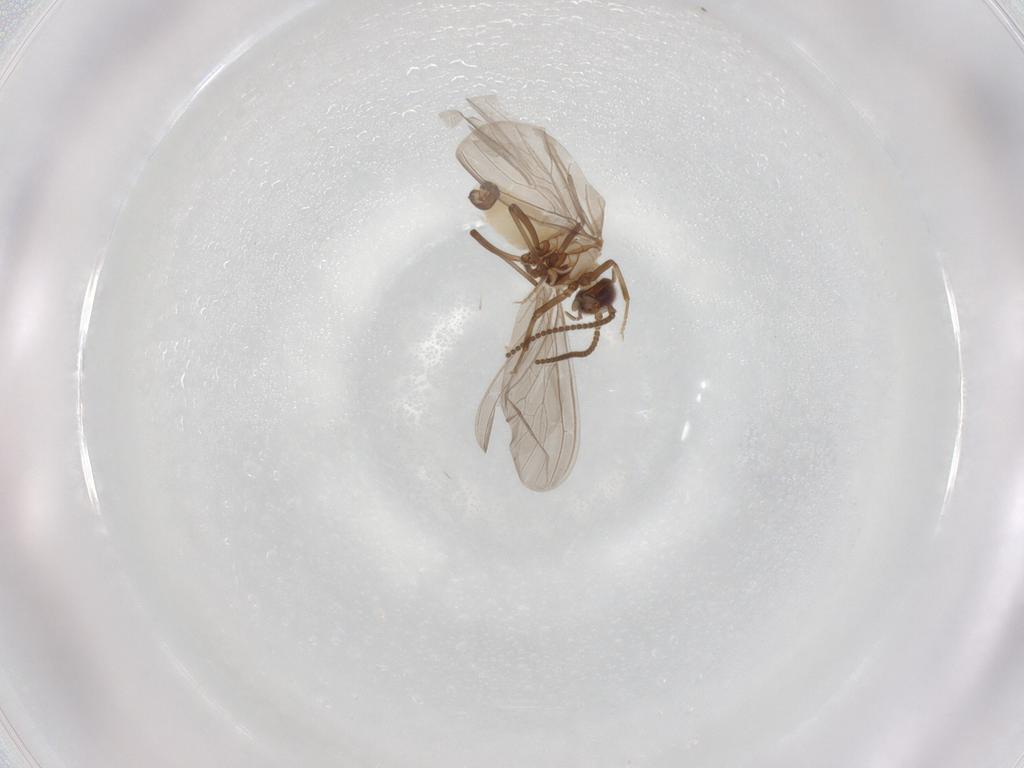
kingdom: Animalia
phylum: Arthropoda
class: Insecta
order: Neuroptera
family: Coniopterygidae
